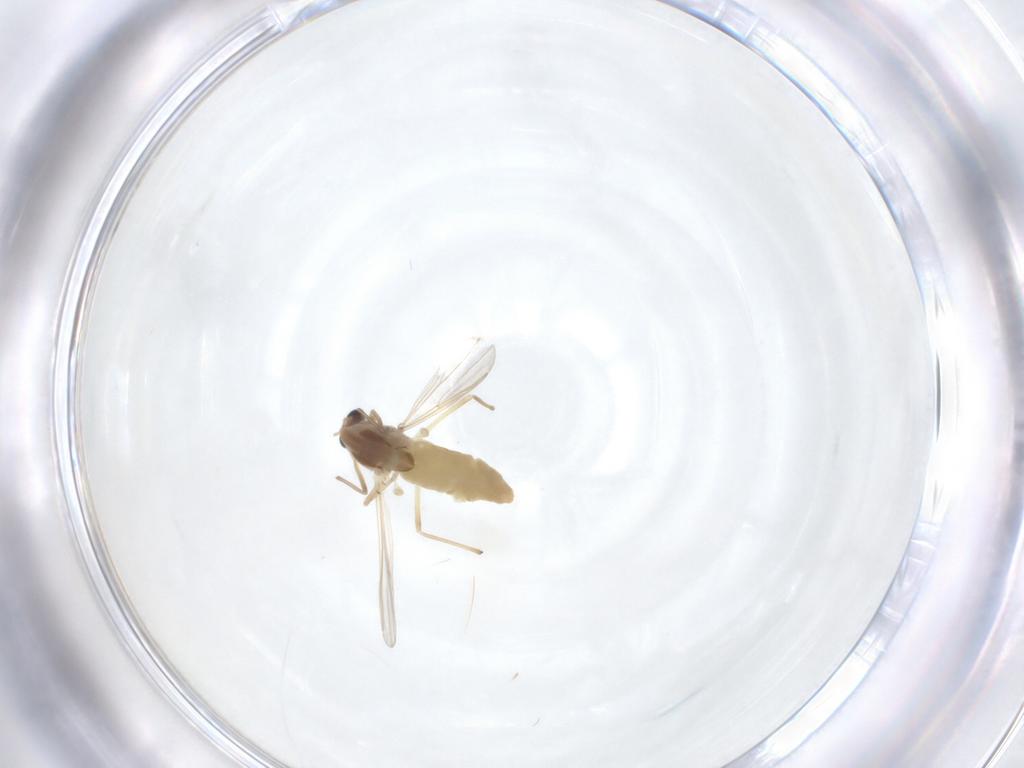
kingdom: Animalia
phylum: Arthropoda
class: Insecta
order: Diptera
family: Chironomidae
